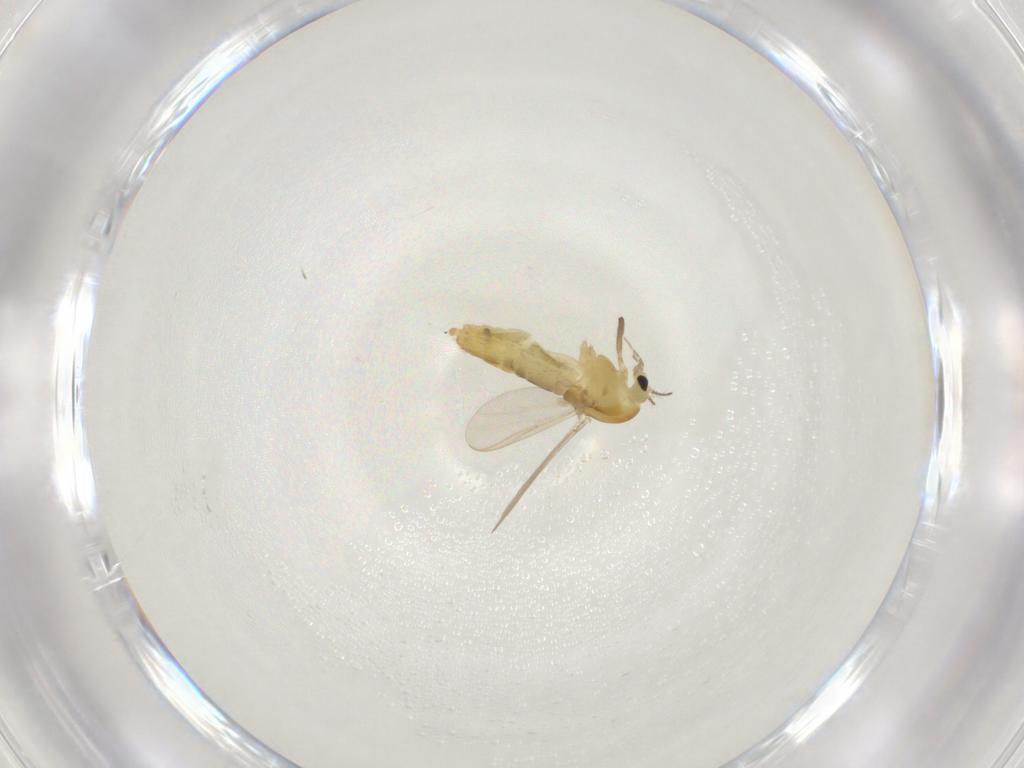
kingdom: Animalia
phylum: Arthropoda
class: Insecta
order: Diptera
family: Chironomidae
